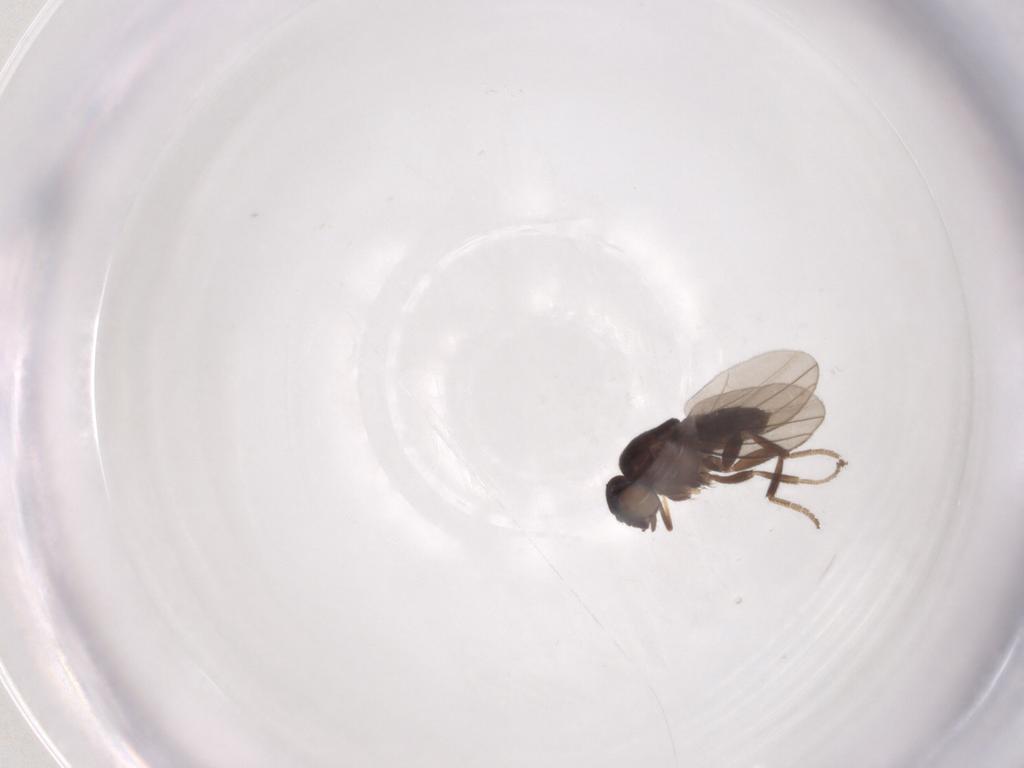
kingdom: Animalia
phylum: Arthropoda
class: Insecta
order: Diptera
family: Milichiidae
